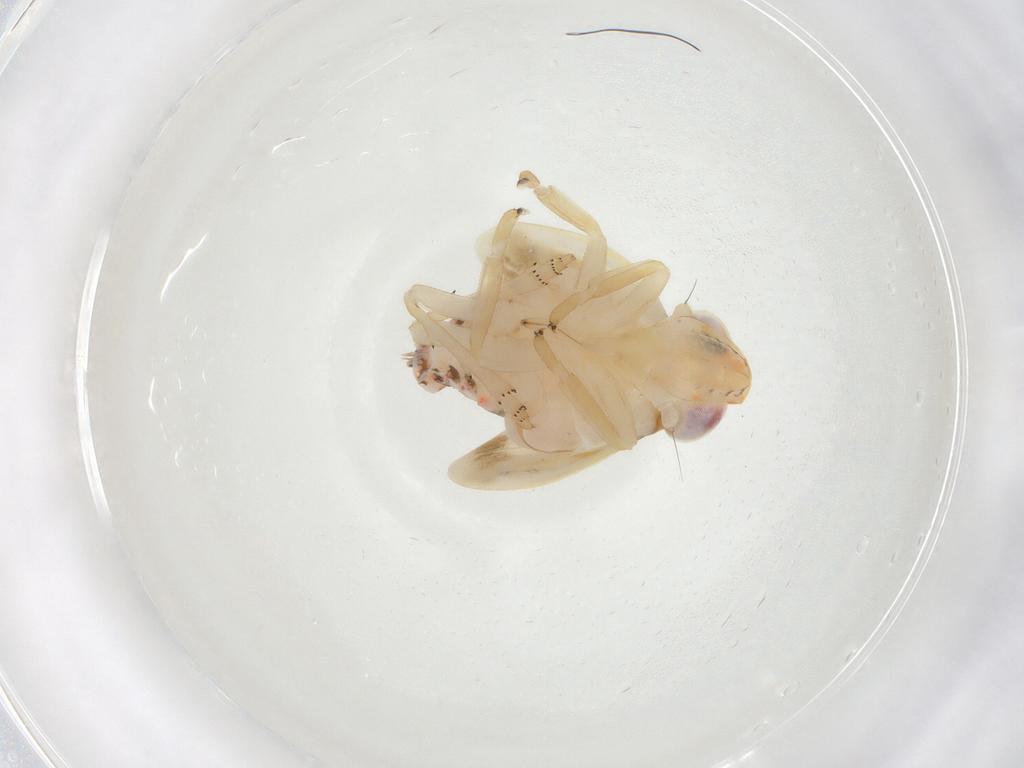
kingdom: Animalia
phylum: Arthropoda
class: Insecta
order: Hemiptera
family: Nogodinidae
